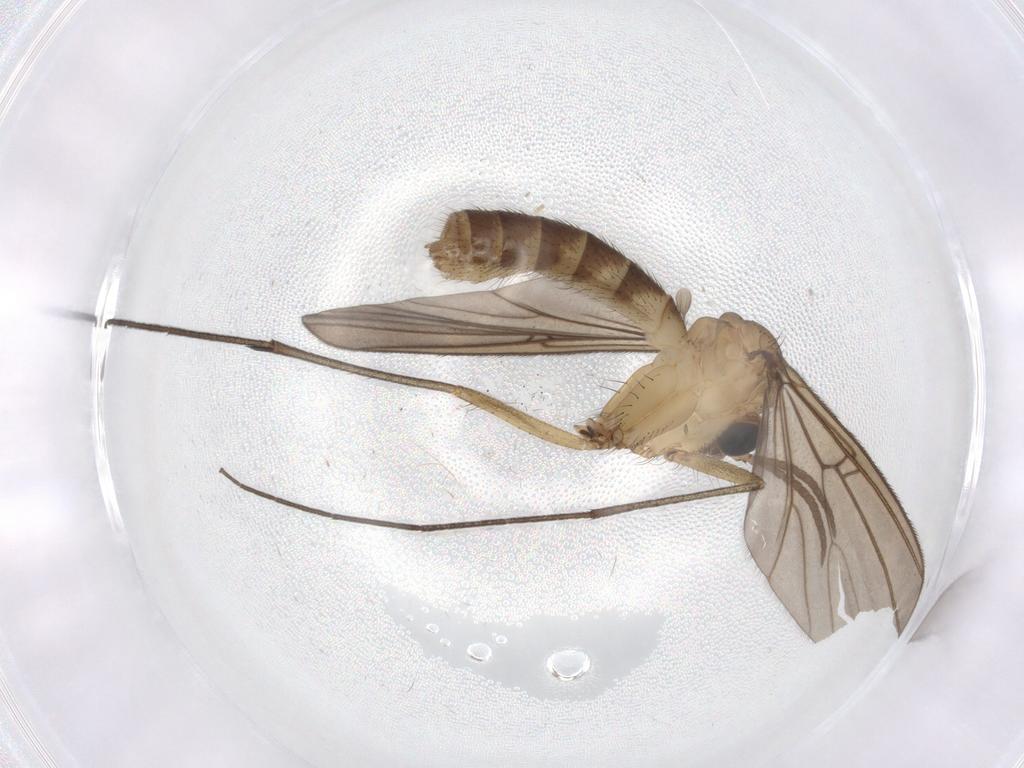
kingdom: Animalia
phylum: Arthropoda
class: Insecta
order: Diptera
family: Ceratopogonidae
